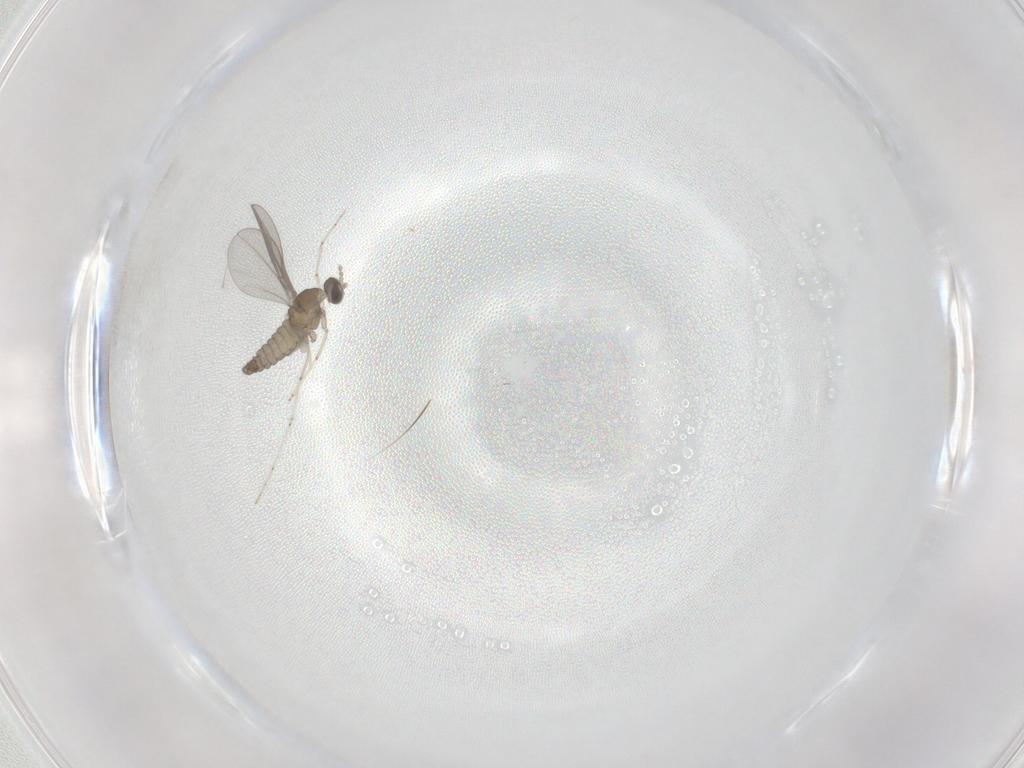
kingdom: Animalia
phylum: Arthropoda
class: Insecta
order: Diptera
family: Cecidomyiidae
